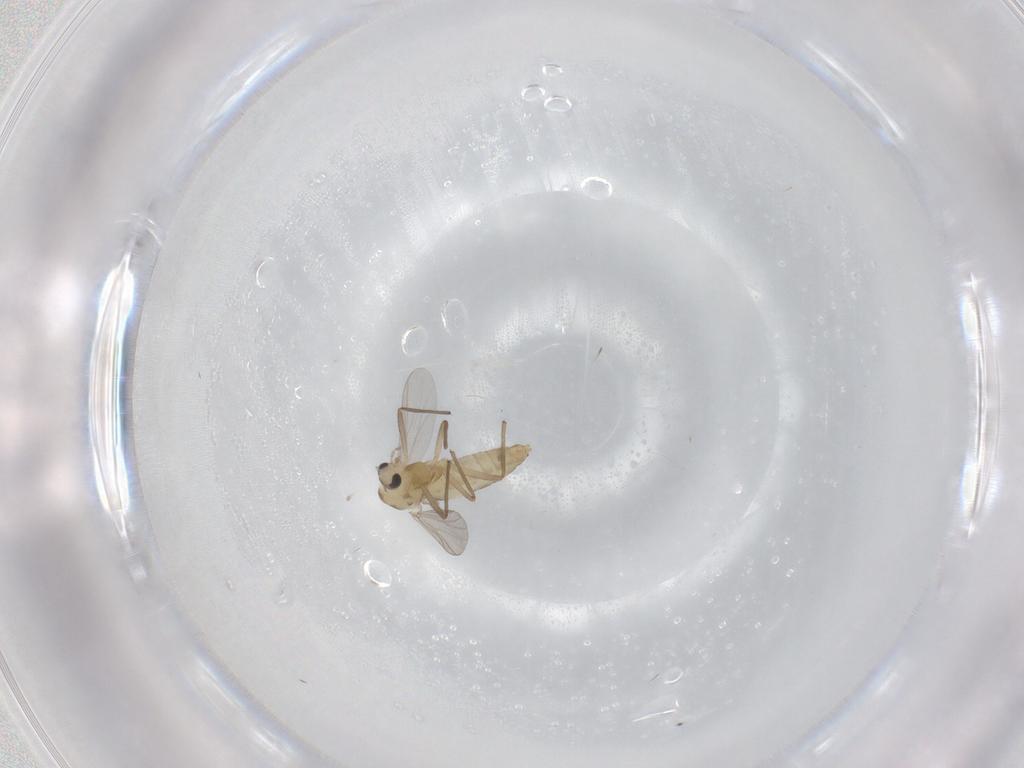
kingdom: Animalia
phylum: Arthropoda
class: Insecta
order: Diptera
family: Chironomidae
